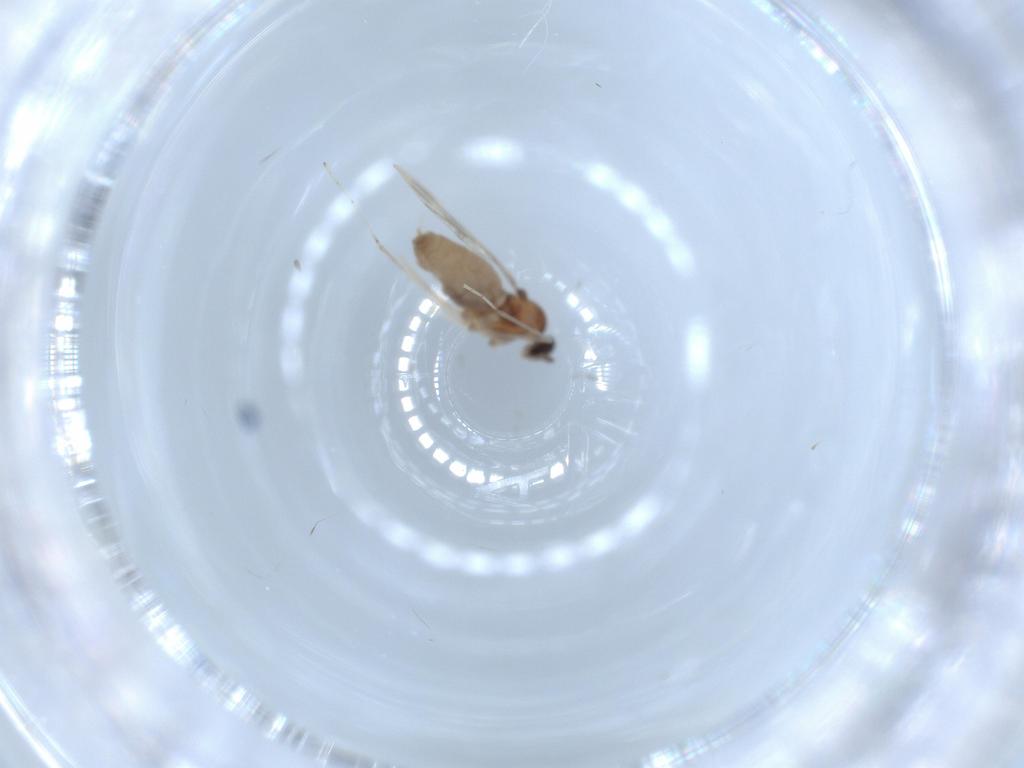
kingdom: Animalia
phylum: Arthropoda
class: Insecta
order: Diptera
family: Cecidomyiidae
